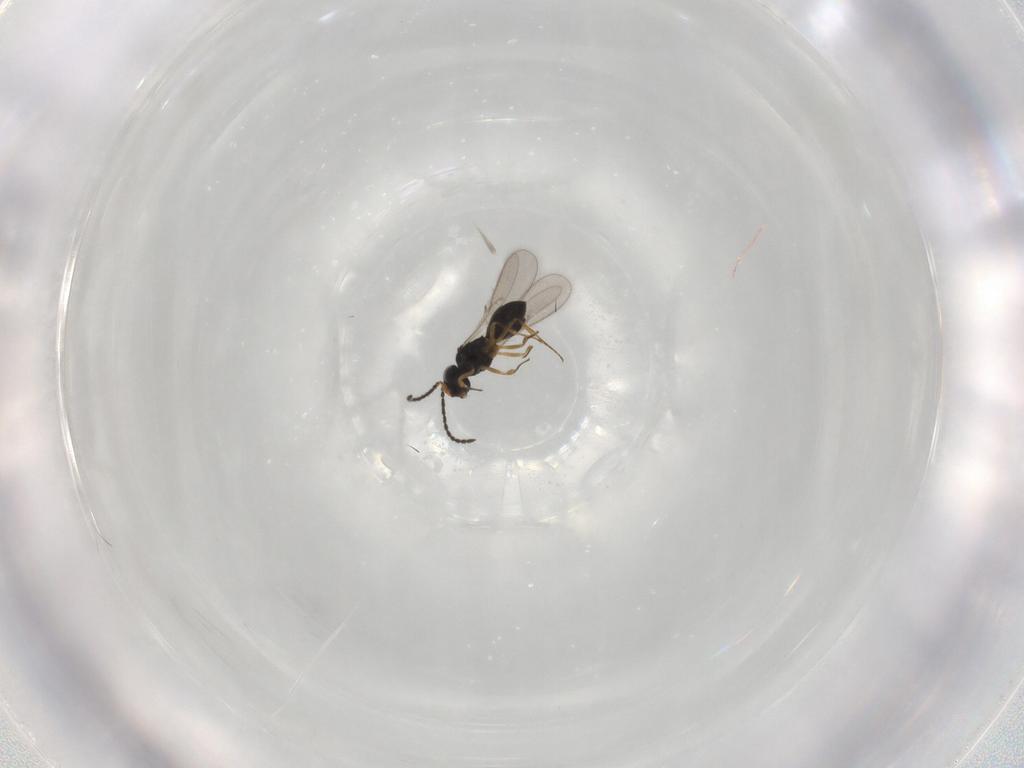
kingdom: Animalia
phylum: Arthropoda
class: Insecta
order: Hymenoptera
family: Scelionidae
